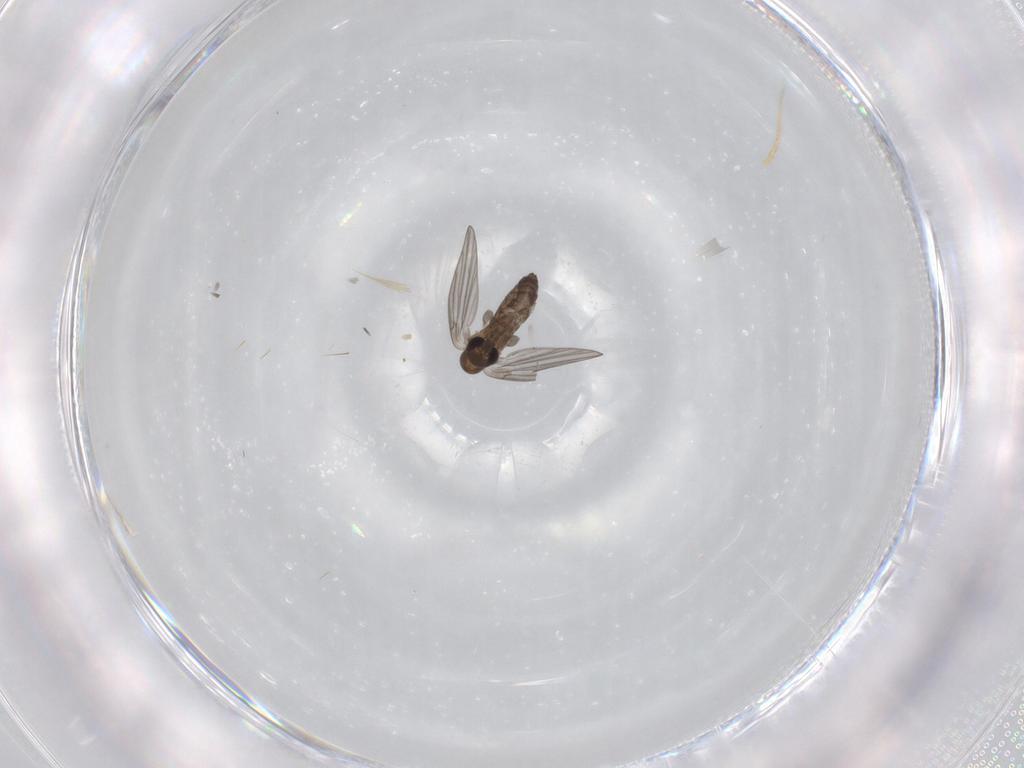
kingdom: Animalia
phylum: Arthropoda
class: Insecta
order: Diptera
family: Psychodidae
